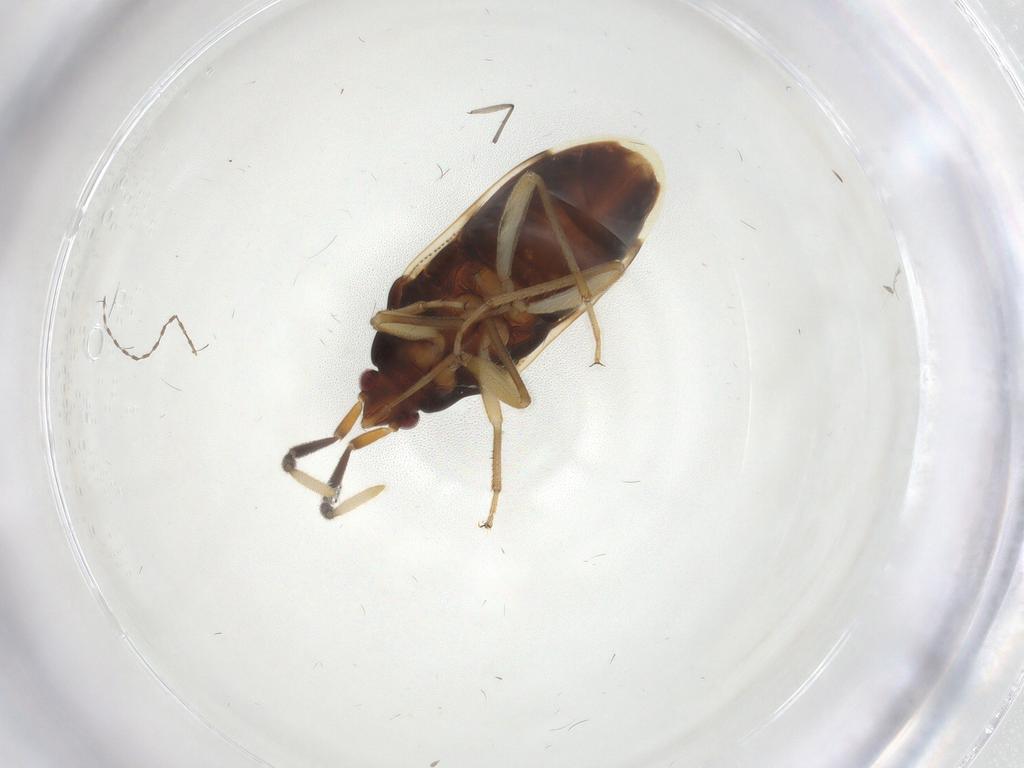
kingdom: Animalia
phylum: Arthropoda
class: Insecta
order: Hemiptera
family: Rhyparochromidae
